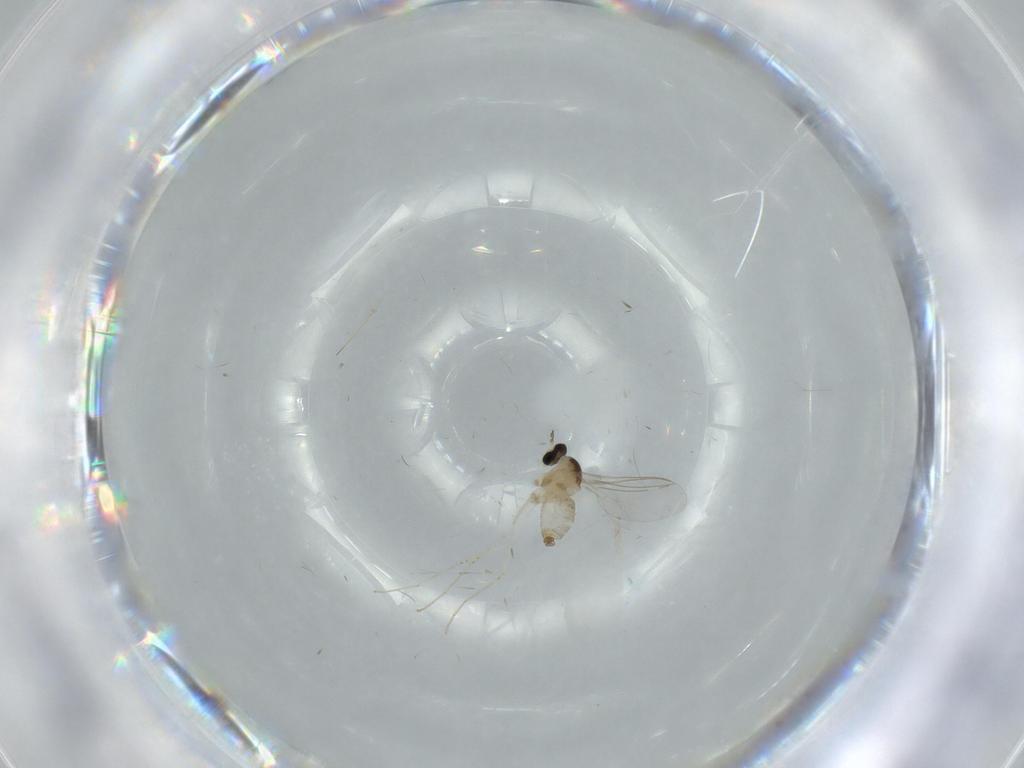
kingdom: Animalia
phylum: Arthropoda
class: Insecta
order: Diptera
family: Cecidomyiidae
